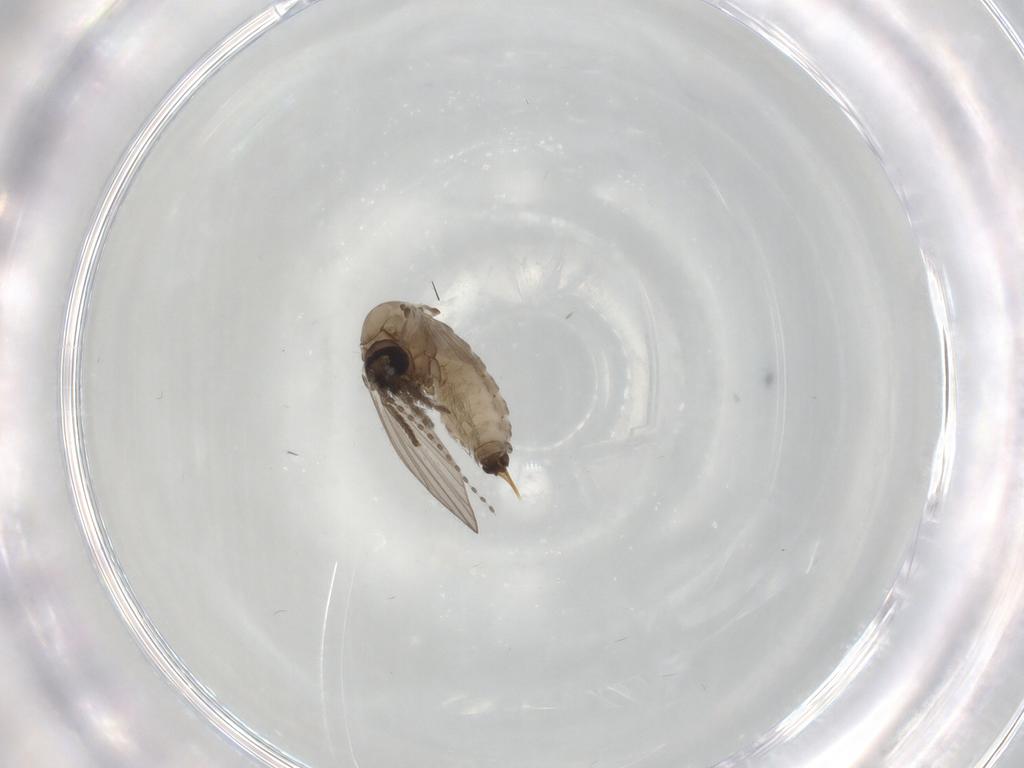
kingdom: Animalia
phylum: Arthropoda
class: Insecta
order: Diptera
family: Psychodidae
